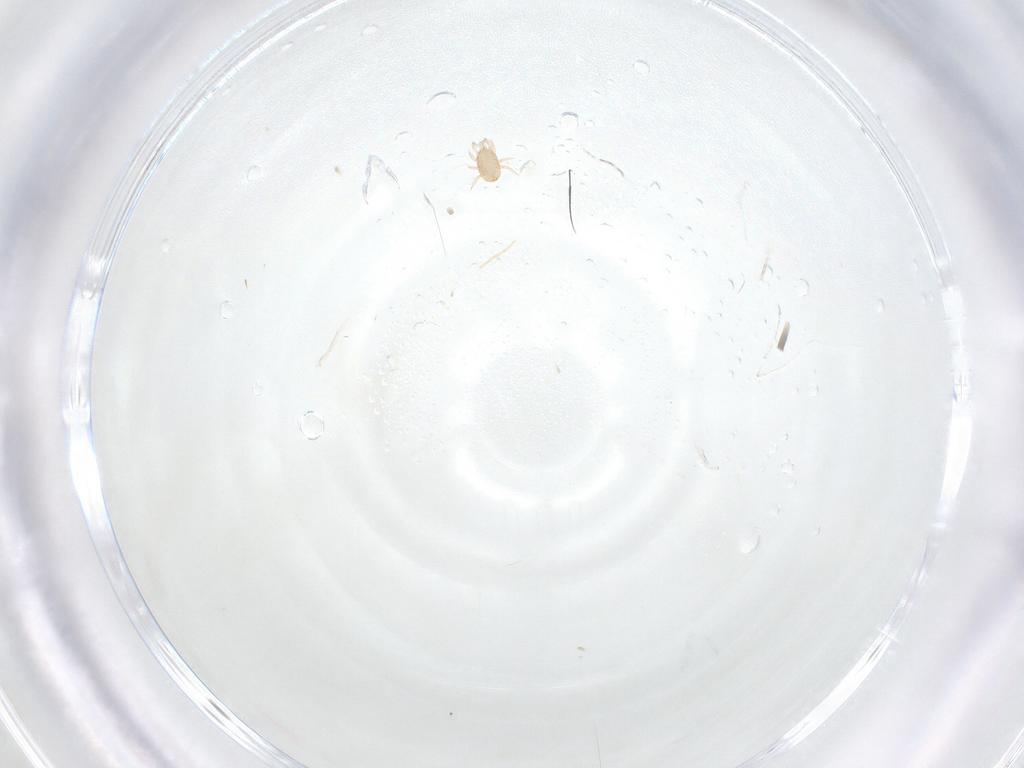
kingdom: Animalia
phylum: Arthropoda
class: Arachnida
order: Mesostigmata
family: Ascidae
